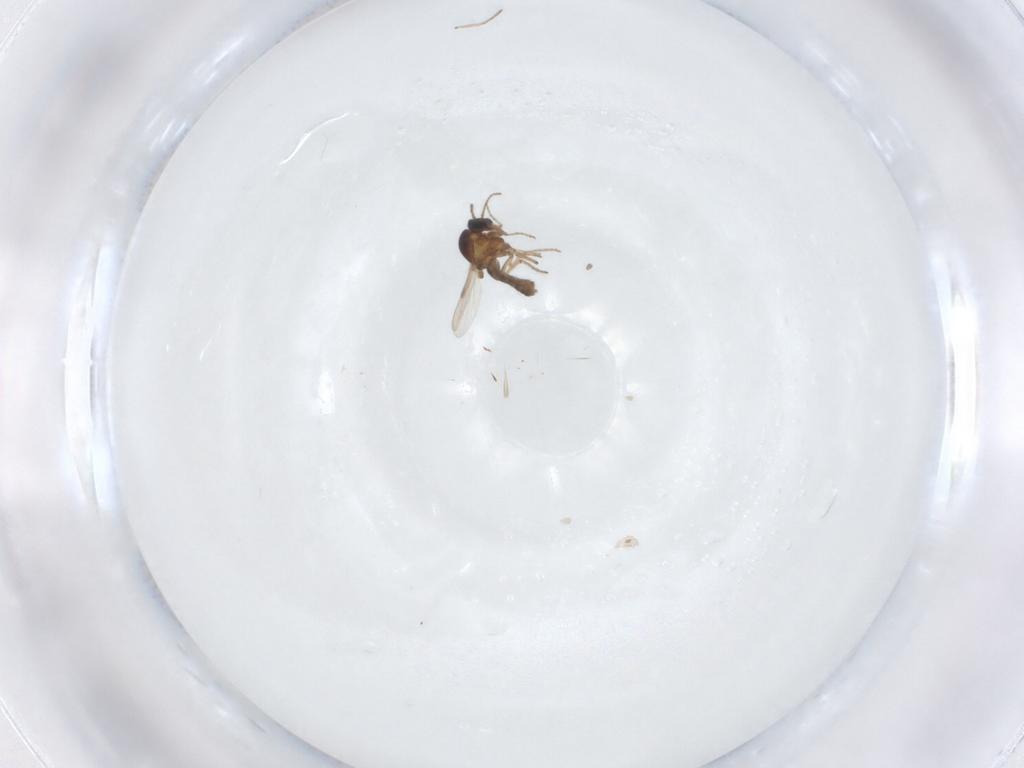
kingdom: Animalia
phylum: Arthropoda
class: Insecta
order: Diptera
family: Ceratopogonidae
